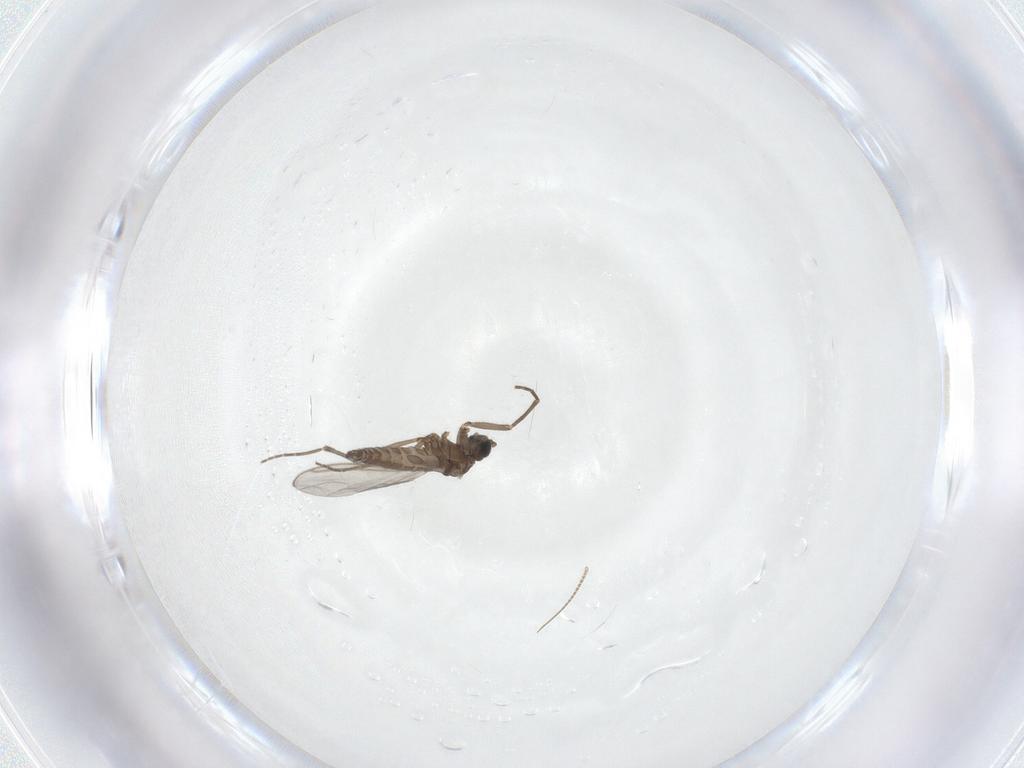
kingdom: Animalia
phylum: Arthropoda
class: Insecta
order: Diptera
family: Sciaridae
